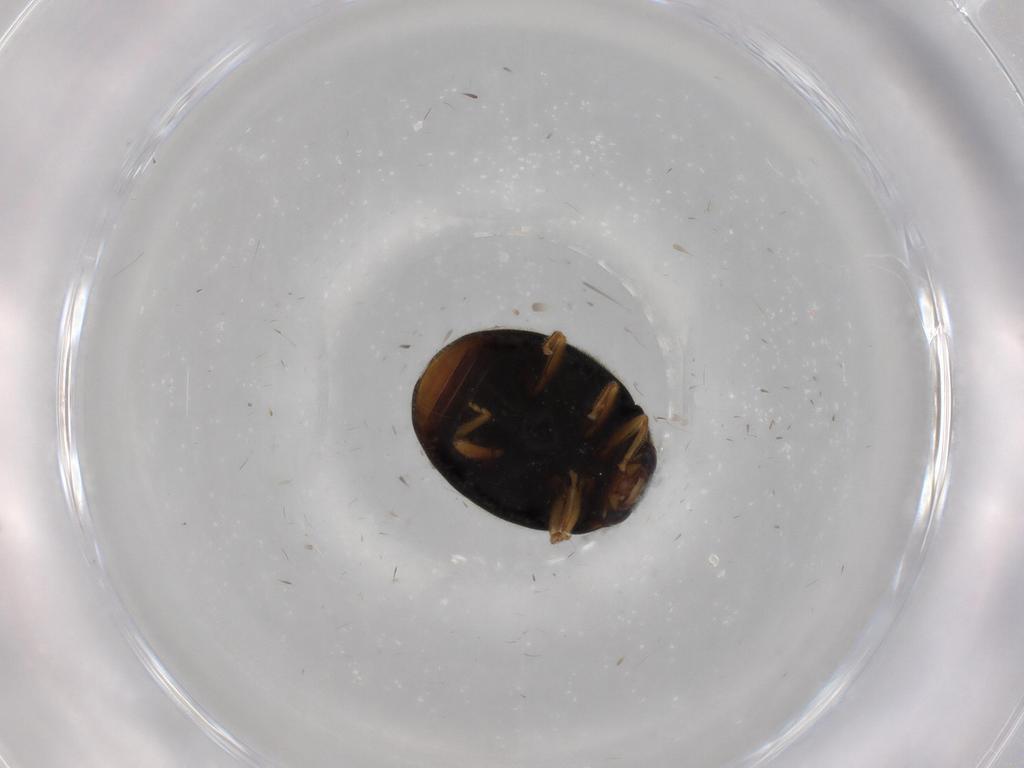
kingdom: Animalia
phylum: Arthropoda
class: Insecta
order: Coleoptera
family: Coccinellidae
